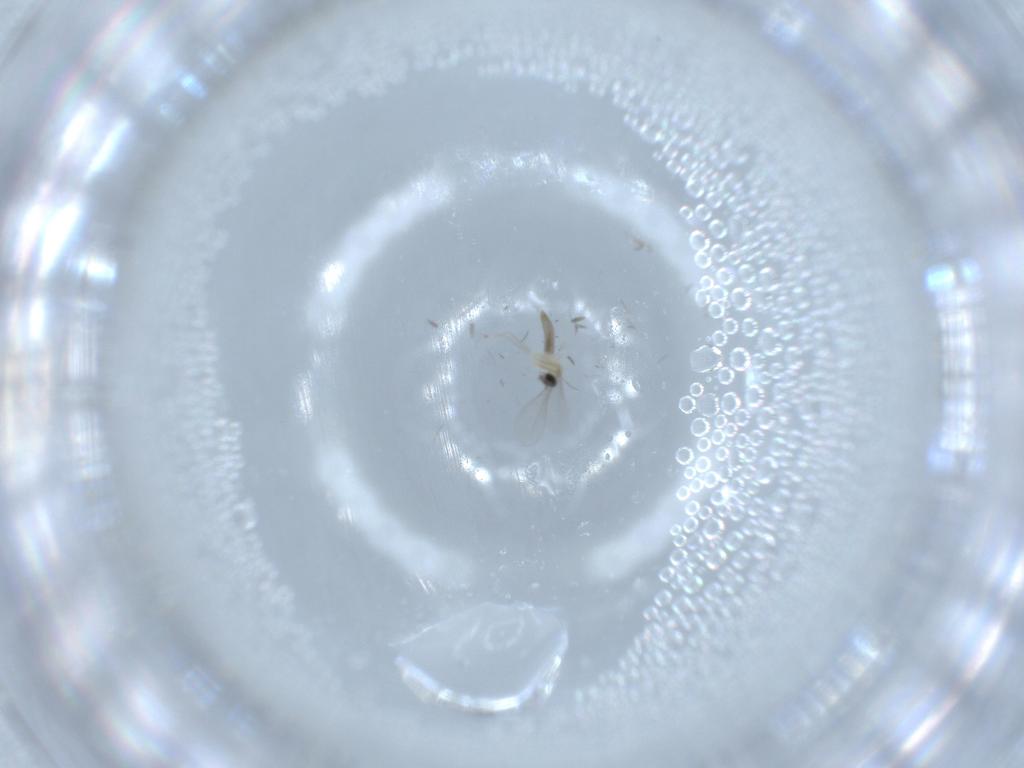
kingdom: Animalia
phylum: Arthropoda
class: Insecta
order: Diptera
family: Cecidomyiidae
